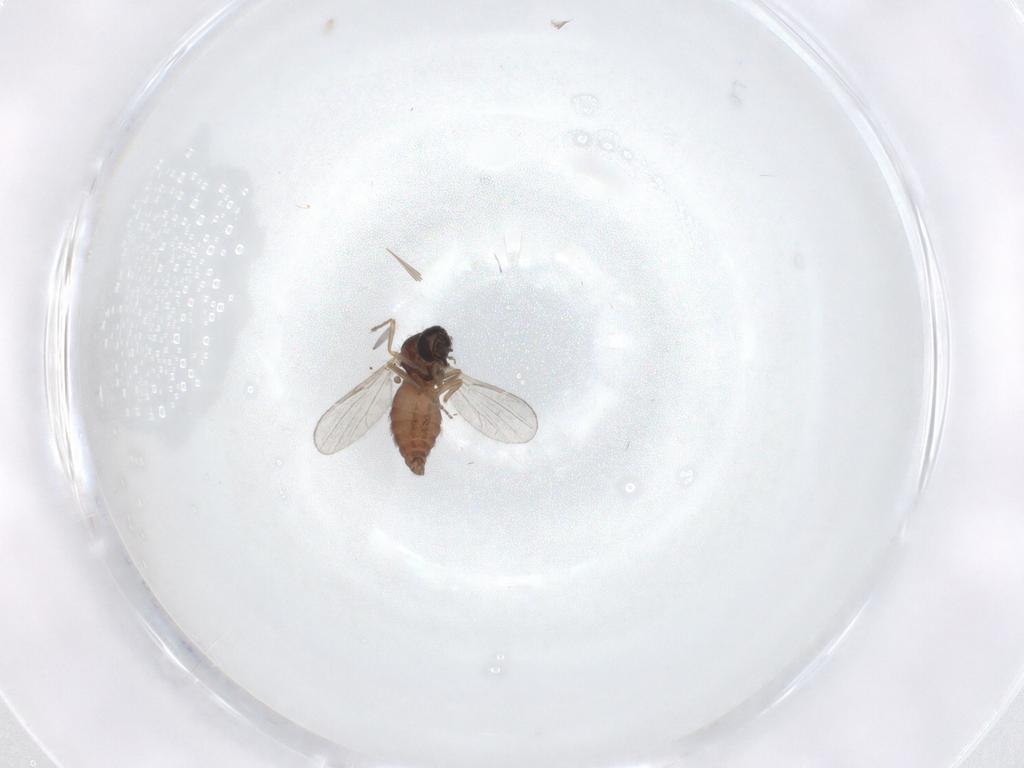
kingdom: Animalia
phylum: Arthropoda
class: Insecta
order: Diptera
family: Ceratopogonidae
